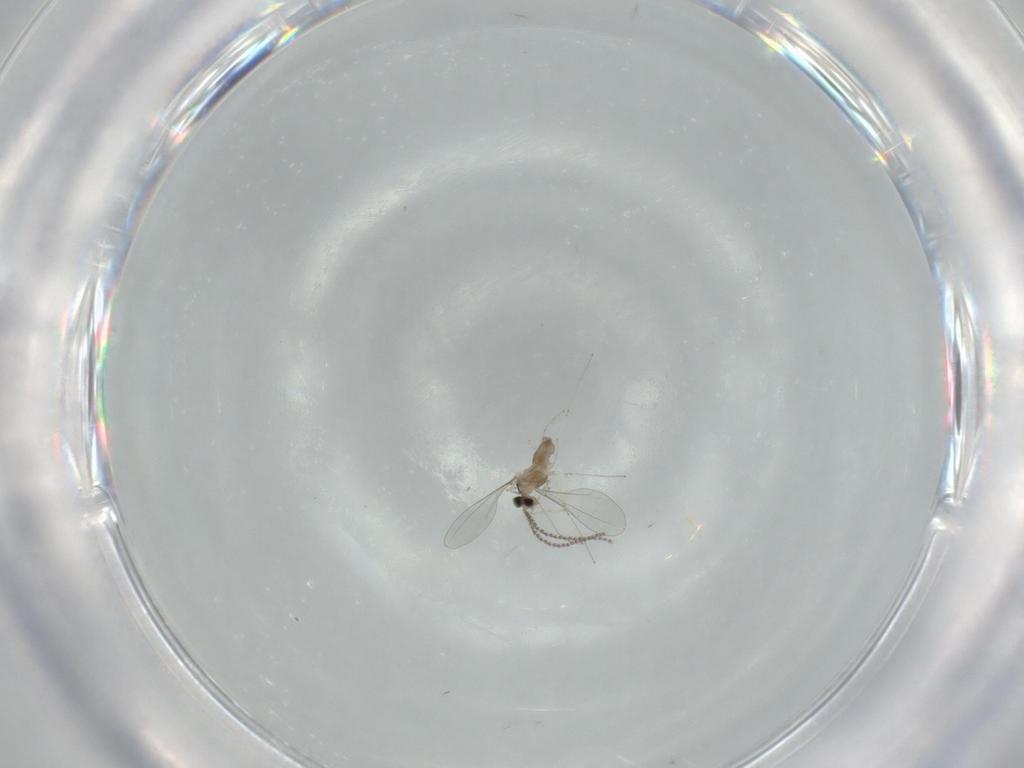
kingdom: Animalia
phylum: Arthropoda
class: Insecta
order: Diptera
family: Cecidomyiidae
